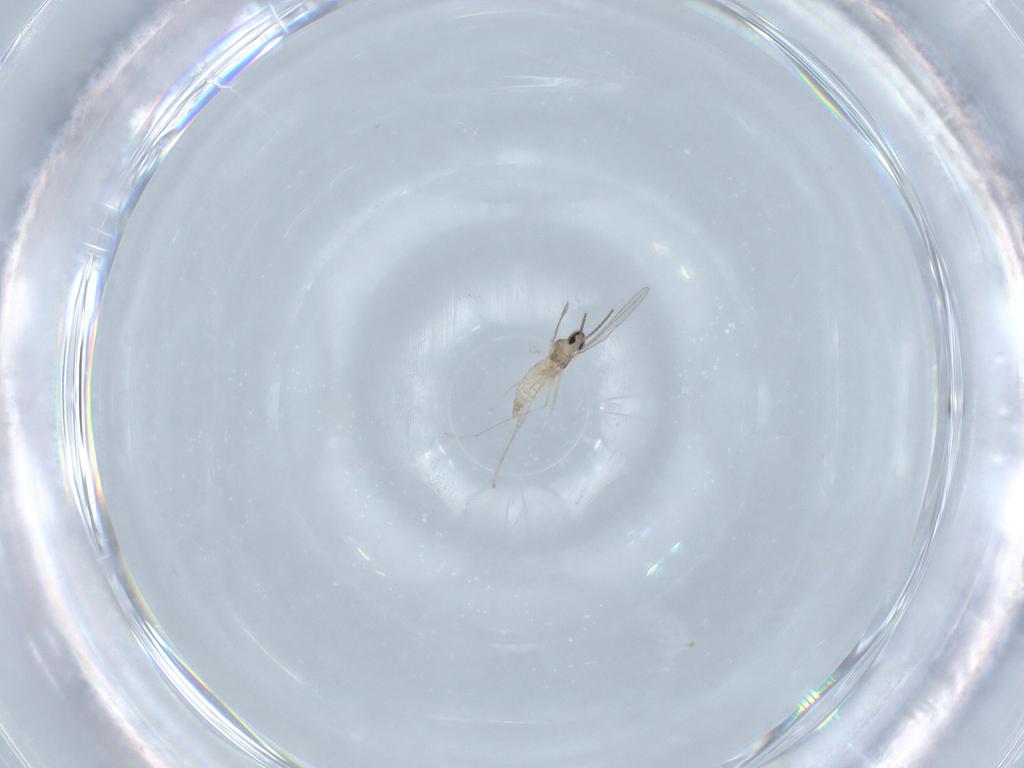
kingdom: Animalia
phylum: Arthropoda
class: Insecta
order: Diptera
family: Cecidomyiidae
